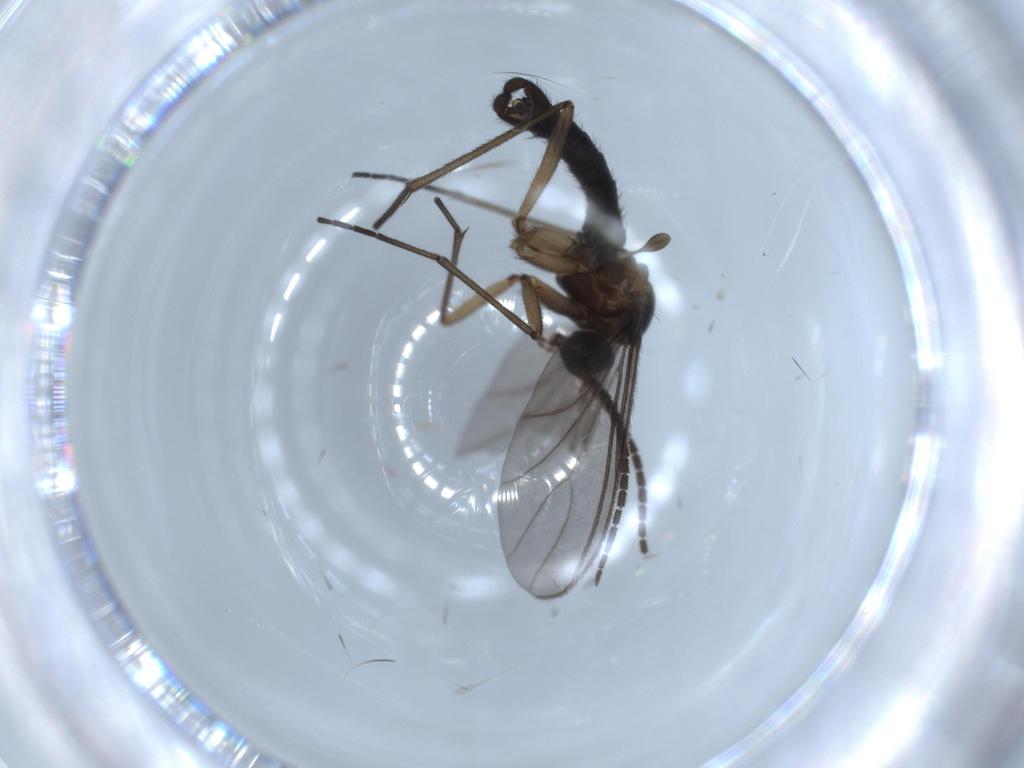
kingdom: Animalia
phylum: Arthropoda
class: Insecta
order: Diptera
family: Sciaridae
